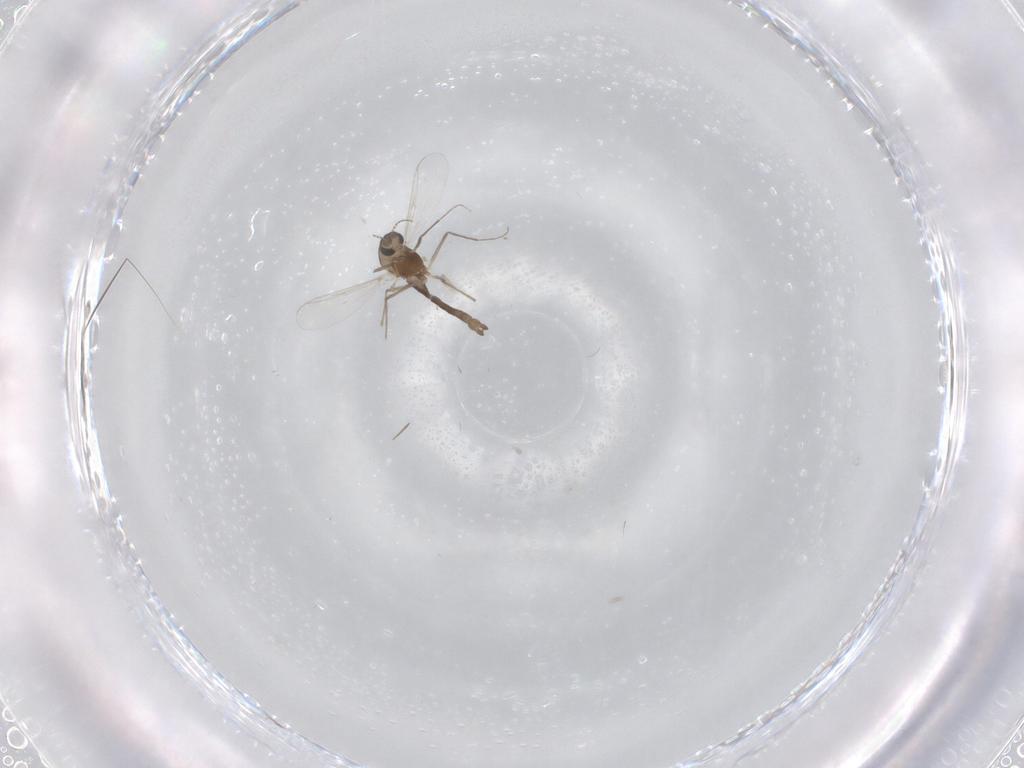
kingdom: Animalia
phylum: Arthropoda
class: Insecta
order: Diptera
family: Chironomidae
